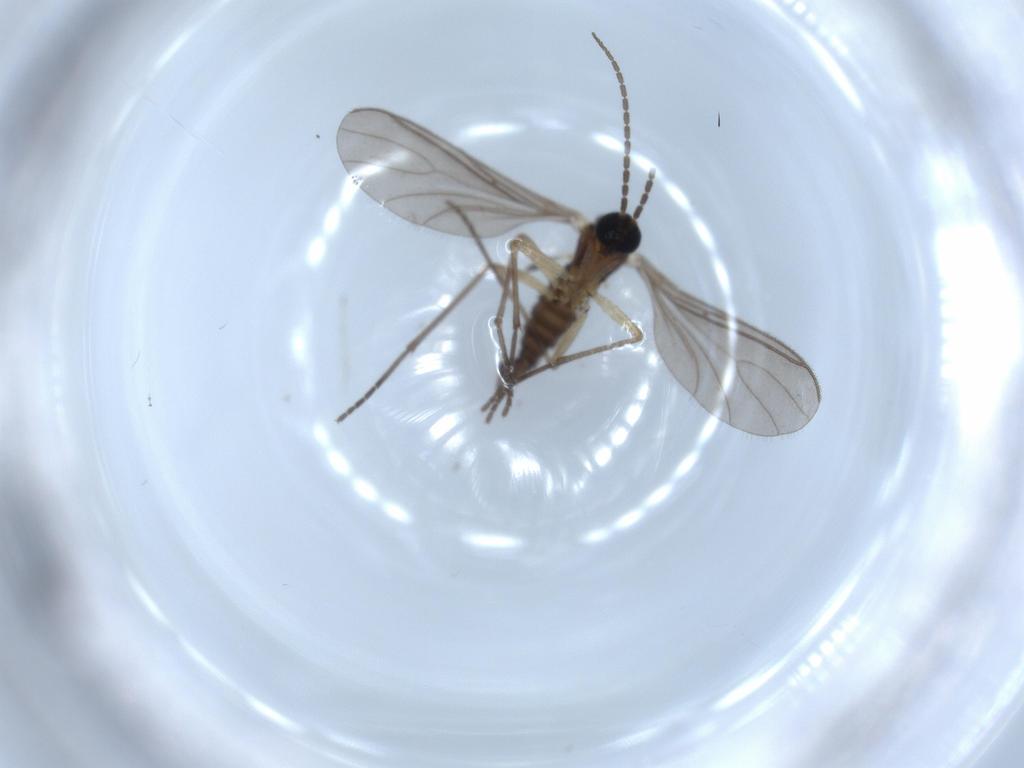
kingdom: Animalia
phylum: Arthropoda
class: Insecta
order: Diptera
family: Sciaridae
